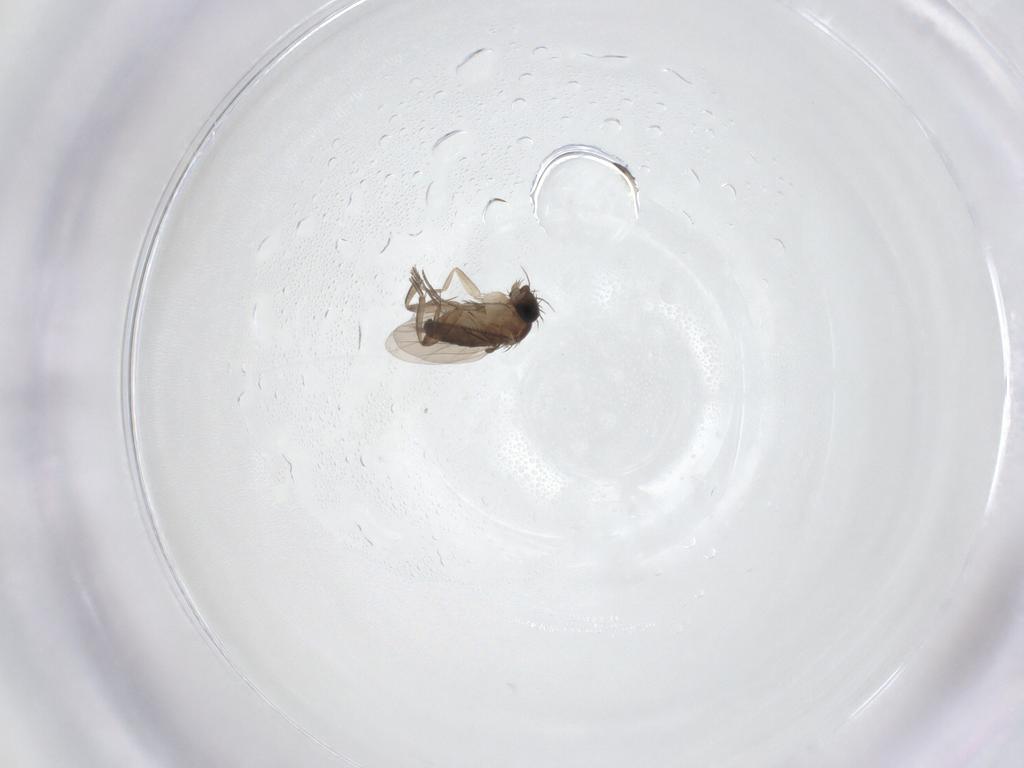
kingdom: Animalia
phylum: Arthropoda
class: Insecta
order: Diptera
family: Phoridae
